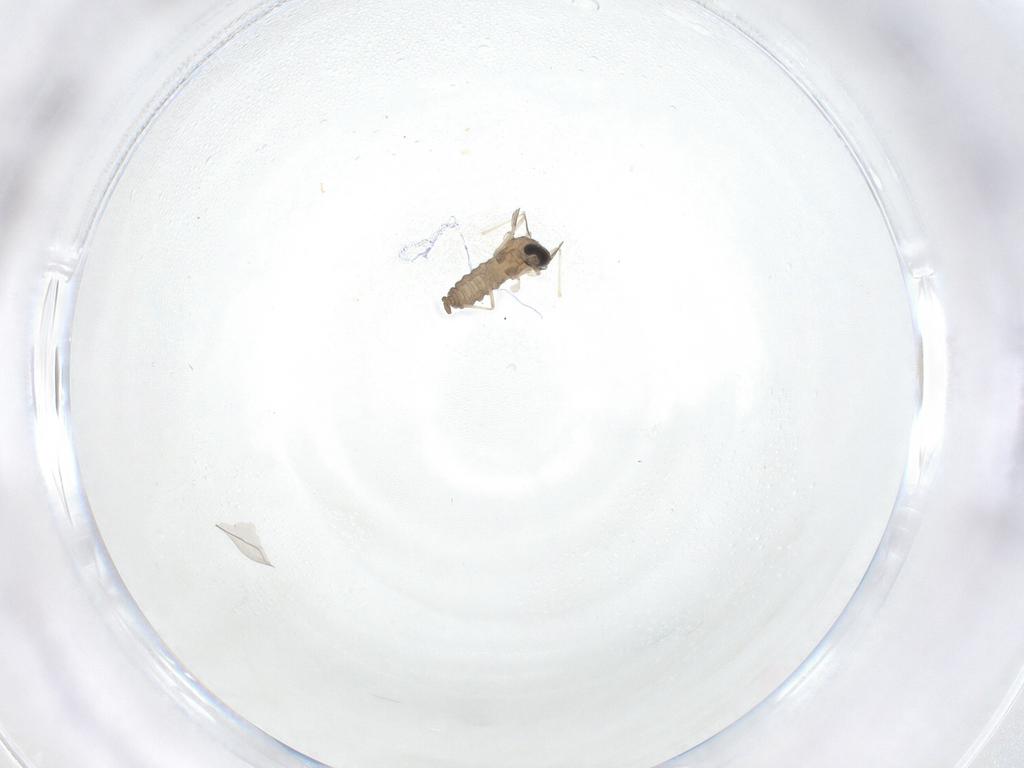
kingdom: Animalia
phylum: Arthropoda
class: Insecta
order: Diptera
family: Cecidomyiidae
